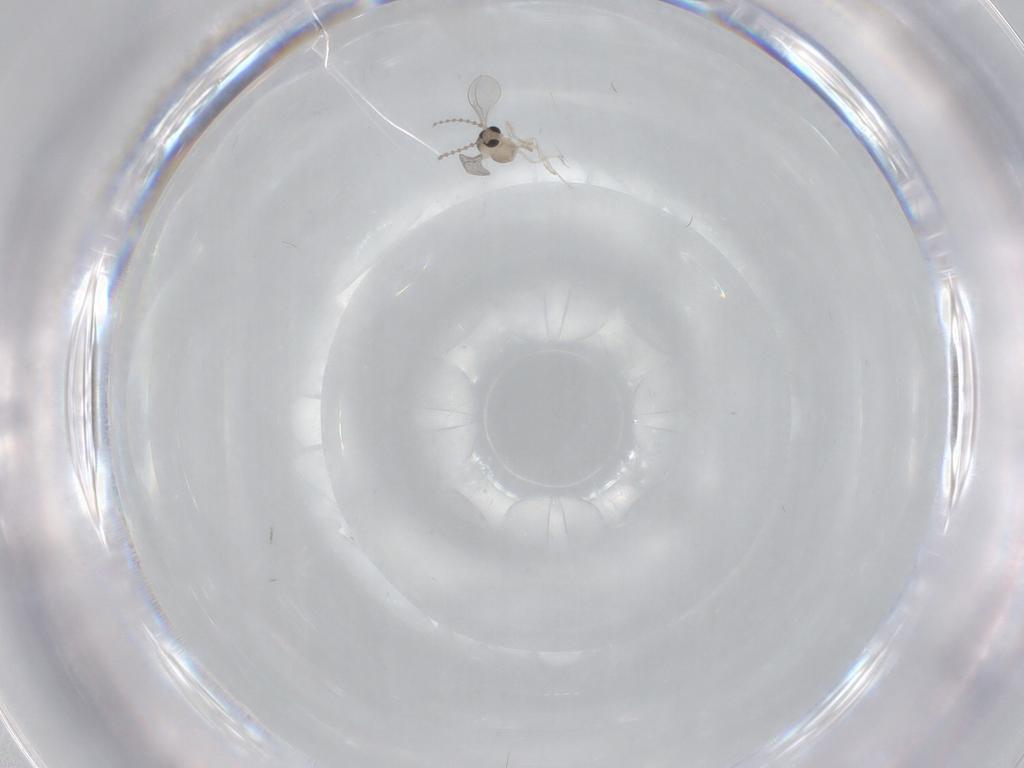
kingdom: Animalia
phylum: Arthropoda
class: Insecta
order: Diptera
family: Cecidomyiidae
